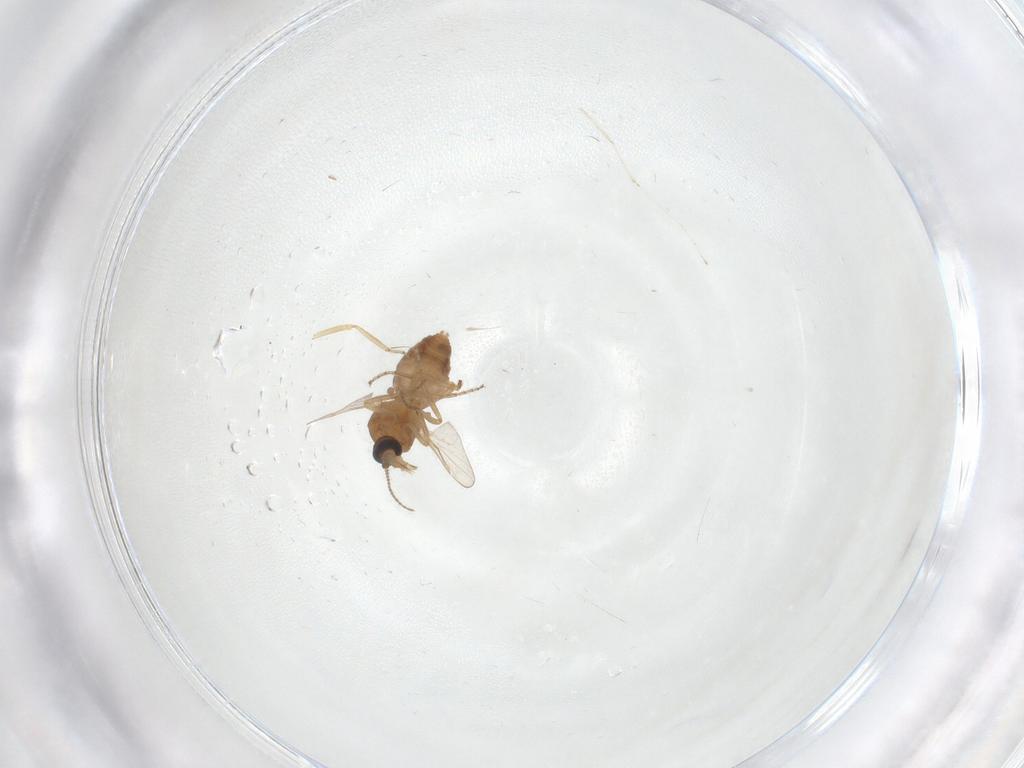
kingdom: Animalia
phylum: Arthropoda
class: Insecta
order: Diptera
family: Ceratopogonidae
